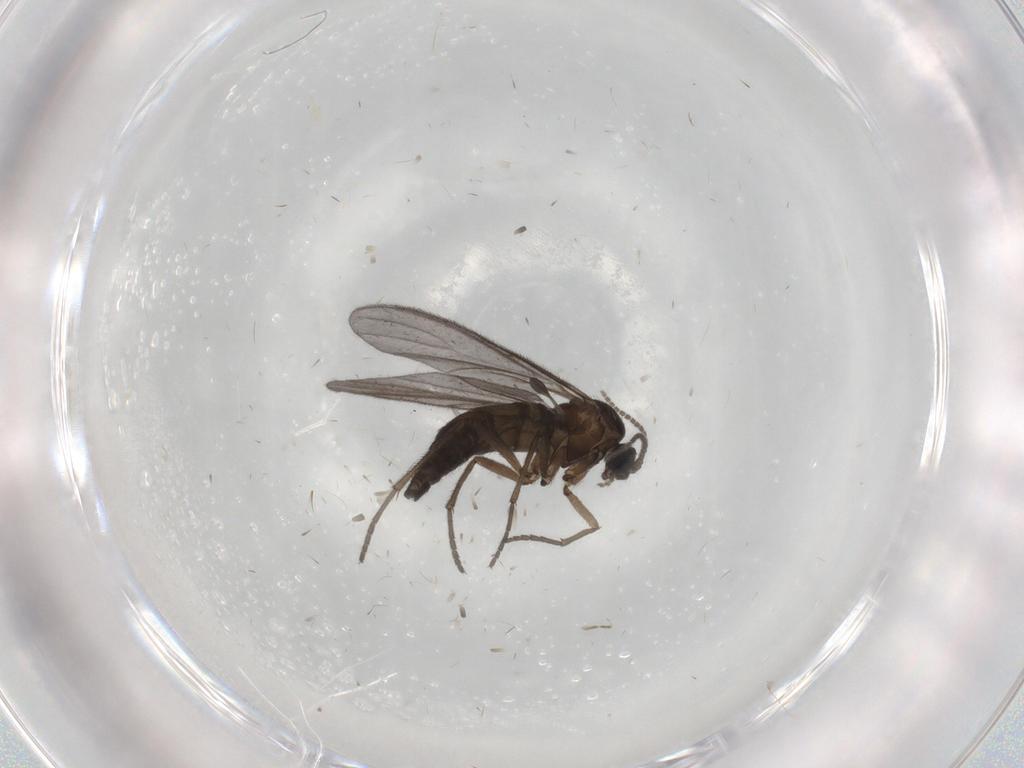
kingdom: Animalia
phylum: Arthropoda
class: Insecta
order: Diptera
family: Sciaridae
